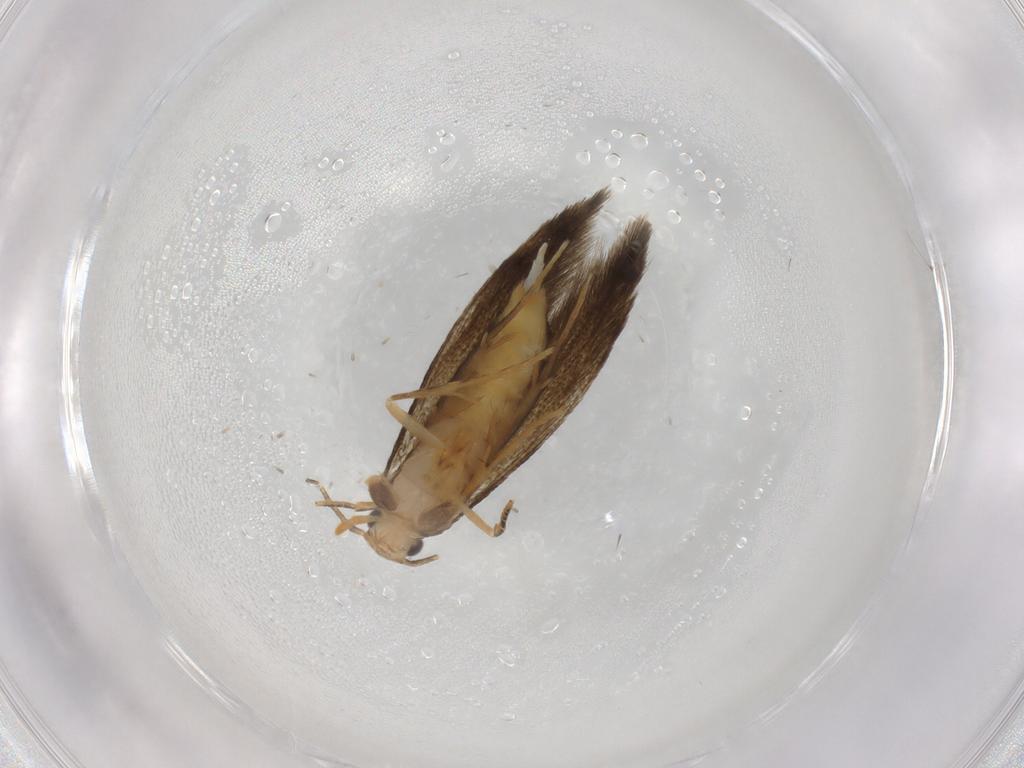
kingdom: Animalia
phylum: Arthropoda
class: Insecta
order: Lepidoptera
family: Tineidae
